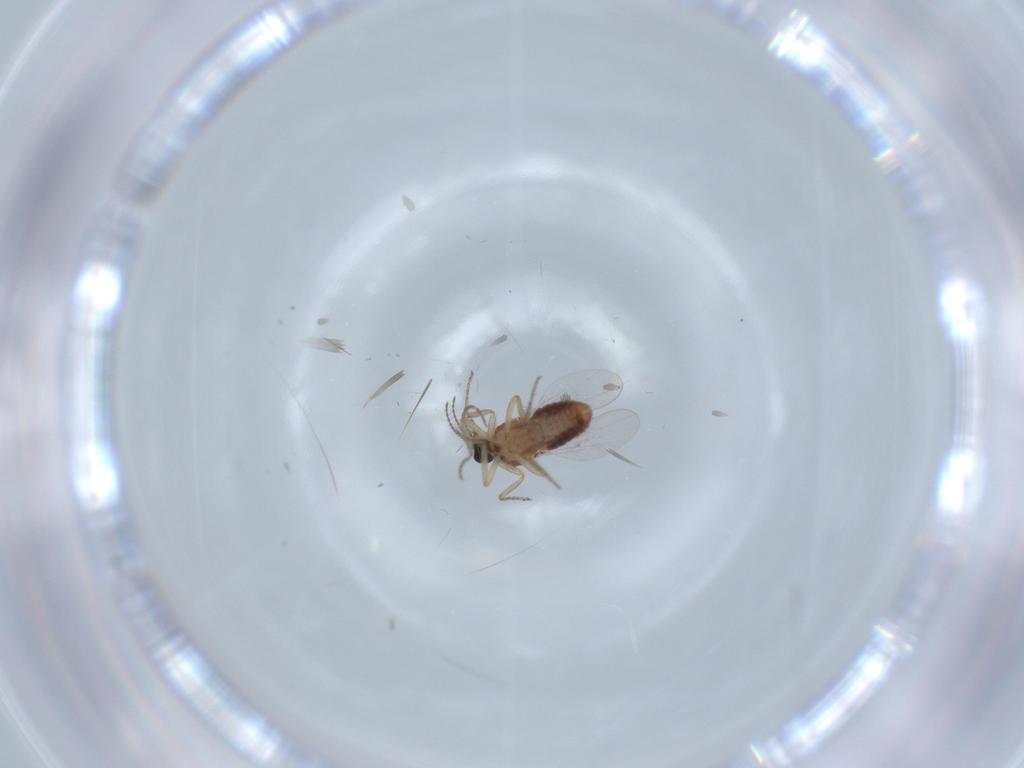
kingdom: Animalia
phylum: Arthropoda
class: Insecta
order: Diptera
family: Cecidomyiidae
